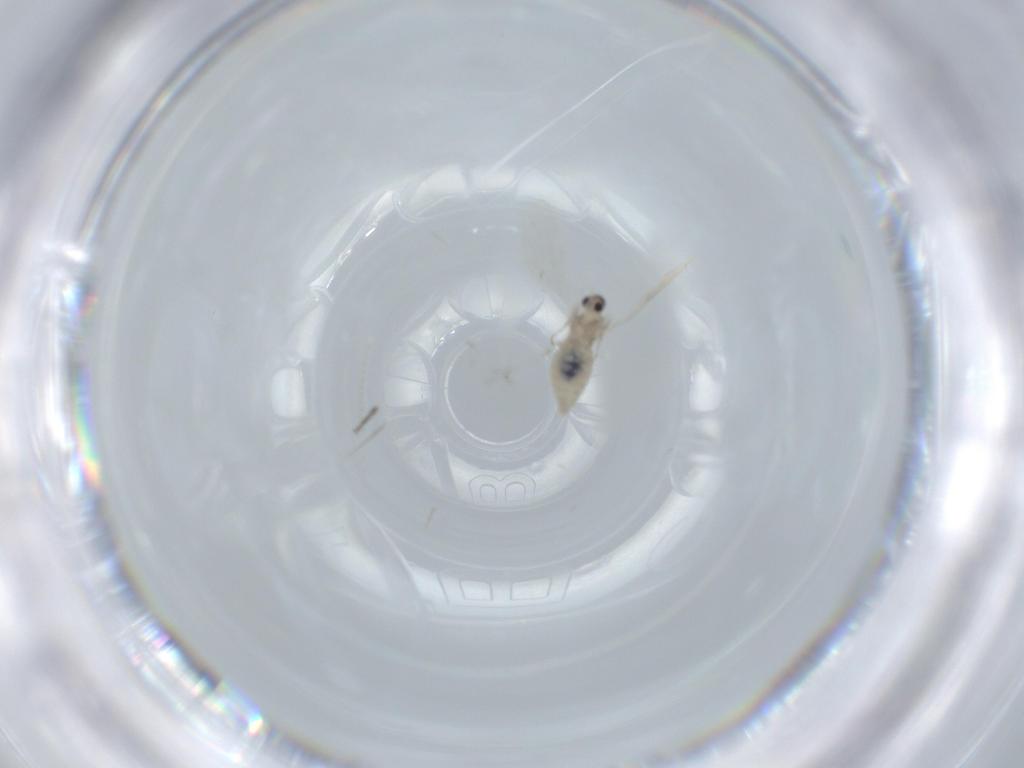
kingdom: Animalia
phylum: Arthropoda
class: Insecta
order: Diptera
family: Cecidomyiidae
